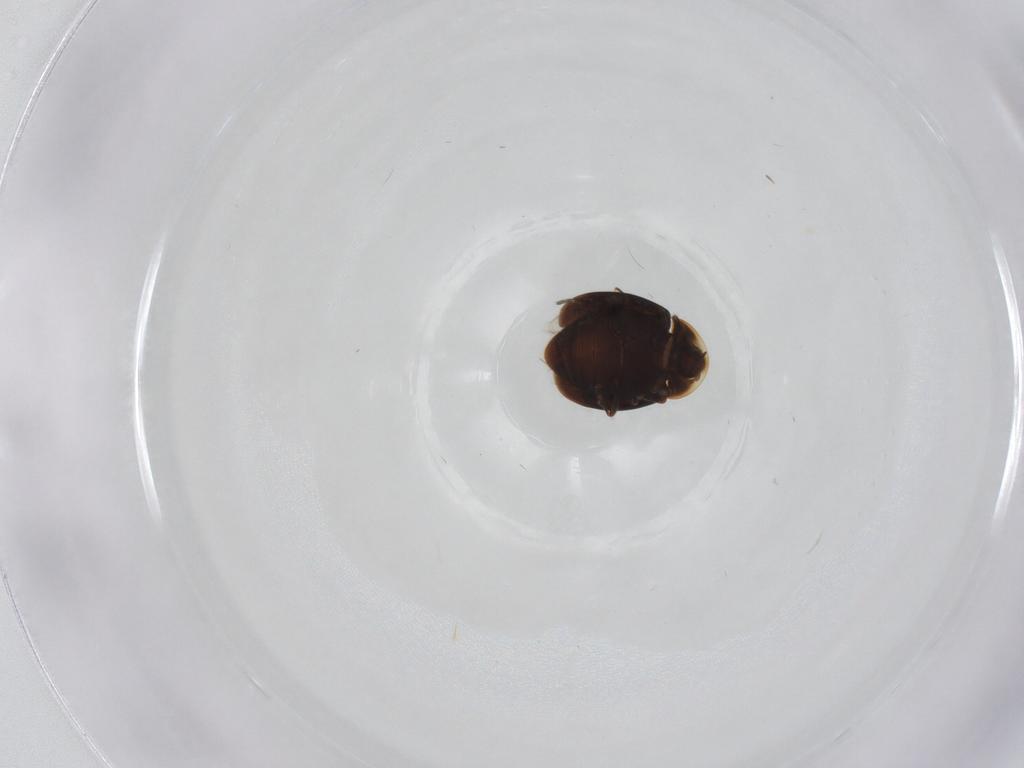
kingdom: Animalia
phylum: Arthropoda
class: Insecta
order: Coleoptera
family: Corylophidae
